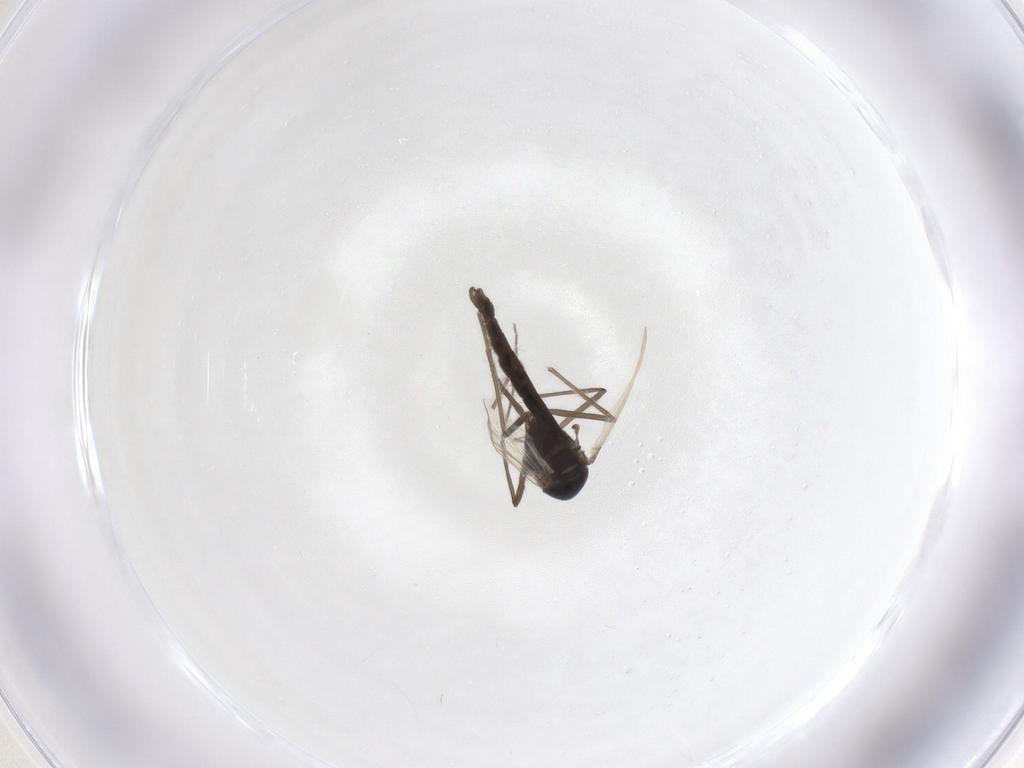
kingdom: Animalia
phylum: Arthropoda
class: Insecta
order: Diptera
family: Chironomidae
